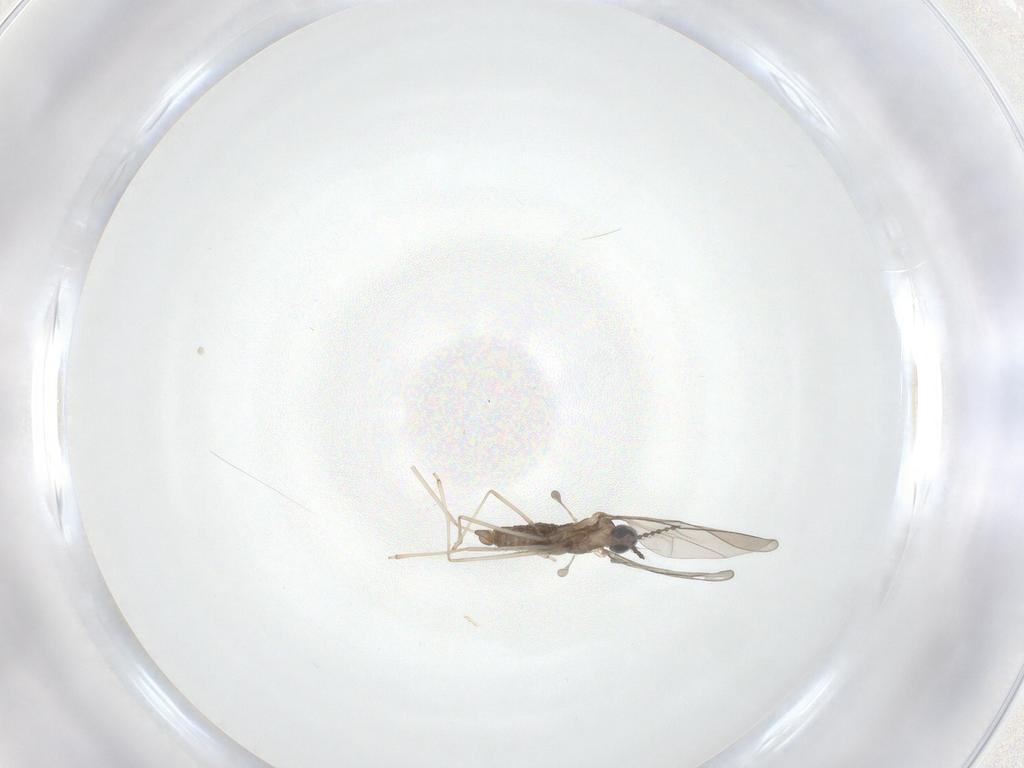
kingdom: Animalia
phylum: Arthropoda
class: Insecta
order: Diptera
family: Cecidomyiidae
